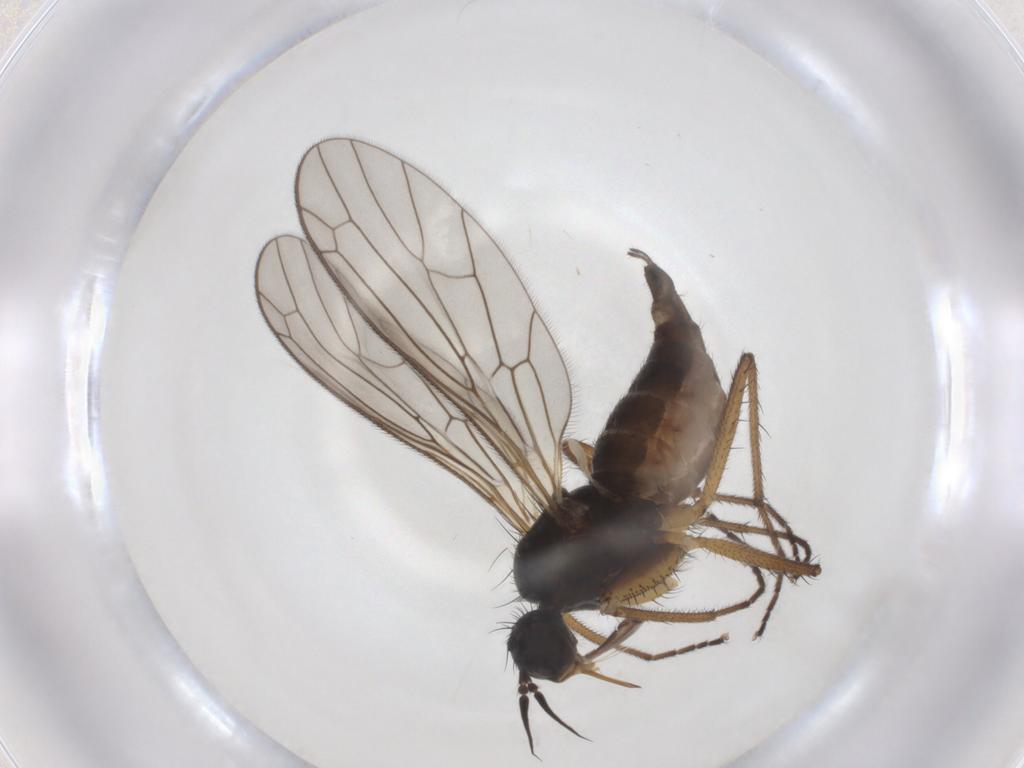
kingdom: Animalia
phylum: Arthropoda
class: Insecta
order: Diptera
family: Empididae
